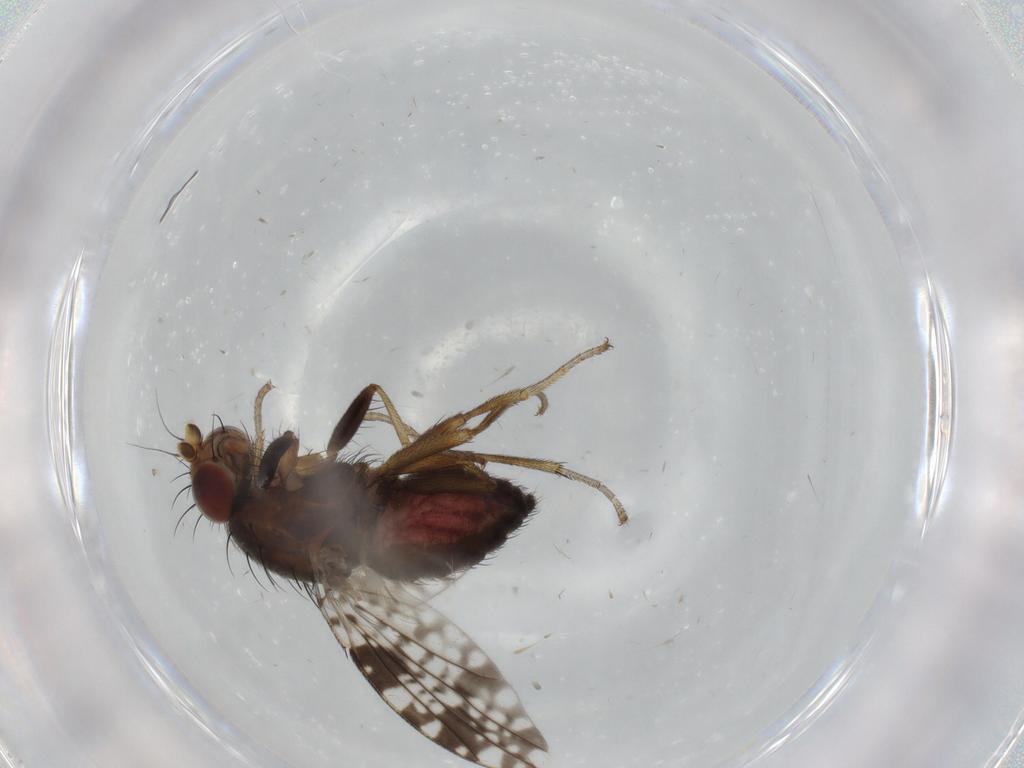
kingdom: Animalia
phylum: Arthropoda
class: Insecta
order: Diptera
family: Tephritidae
